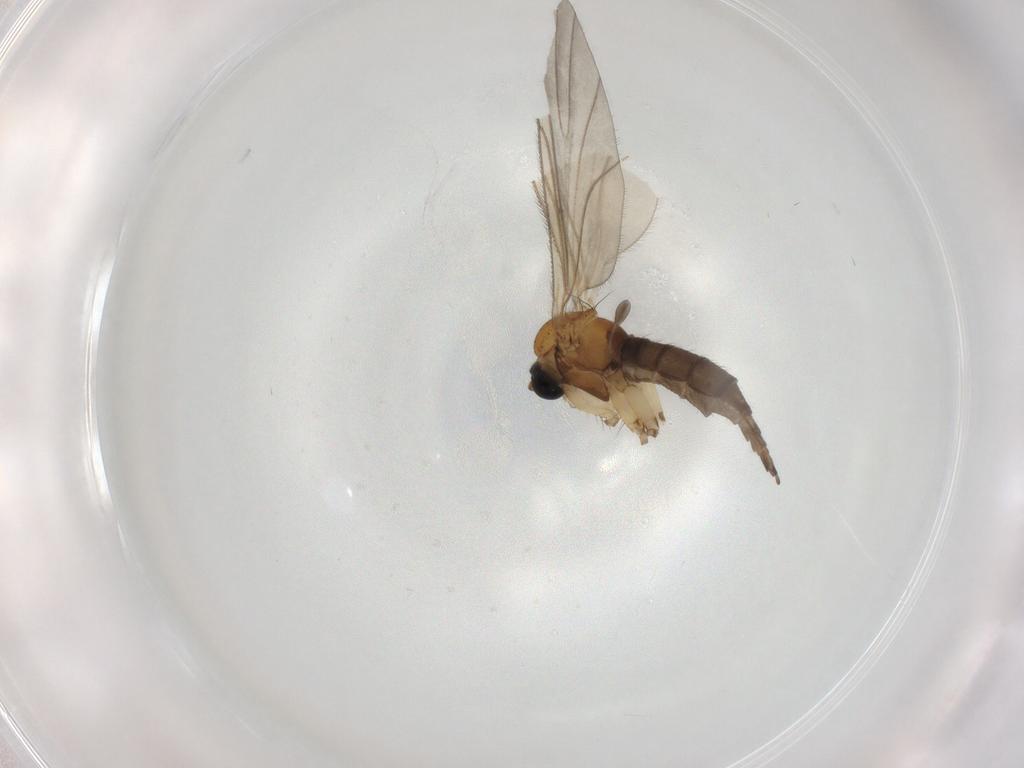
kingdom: Animalia
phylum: Arthropoda
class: Insecta
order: Diptera
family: Sciaridae
